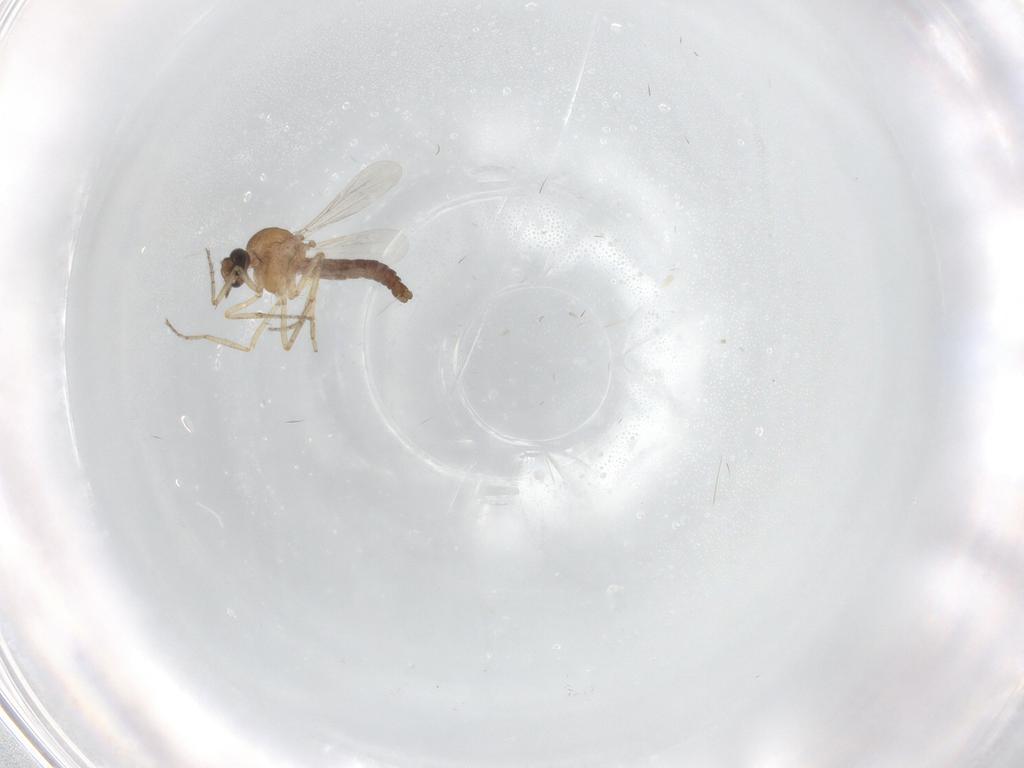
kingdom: Animalia
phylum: Arthropoda
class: Insecta
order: Diptera
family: Ceratopogonidae
